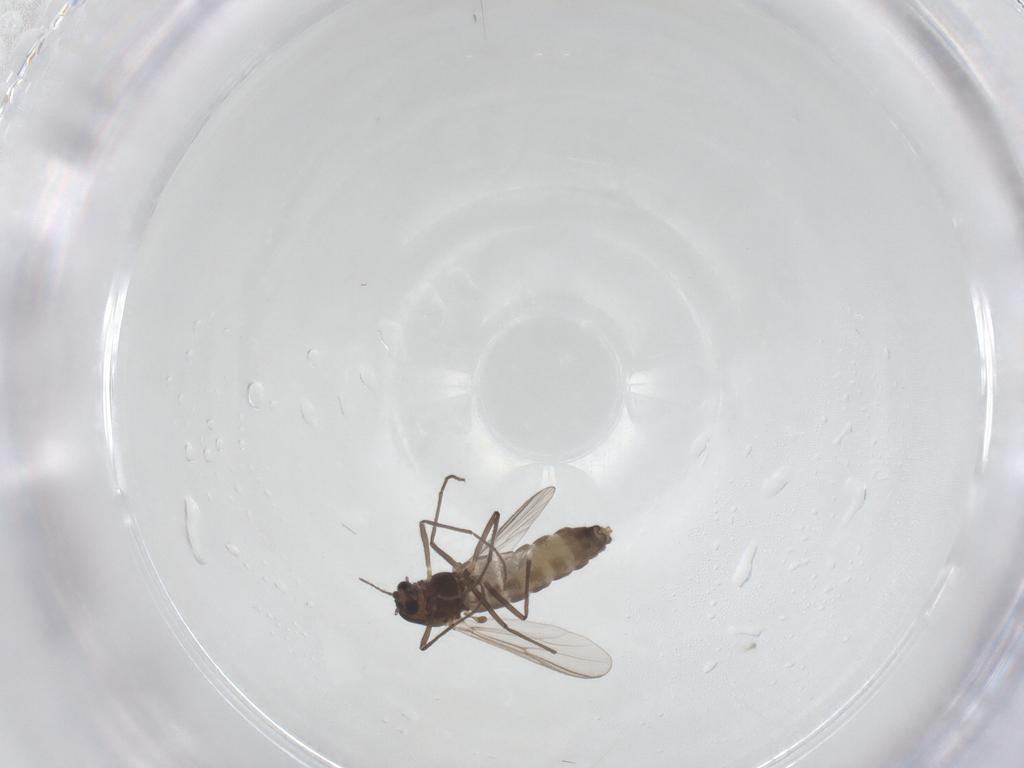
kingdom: Animalia
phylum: Arthropoda
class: Insecta
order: Diptera
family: Chironomidae
